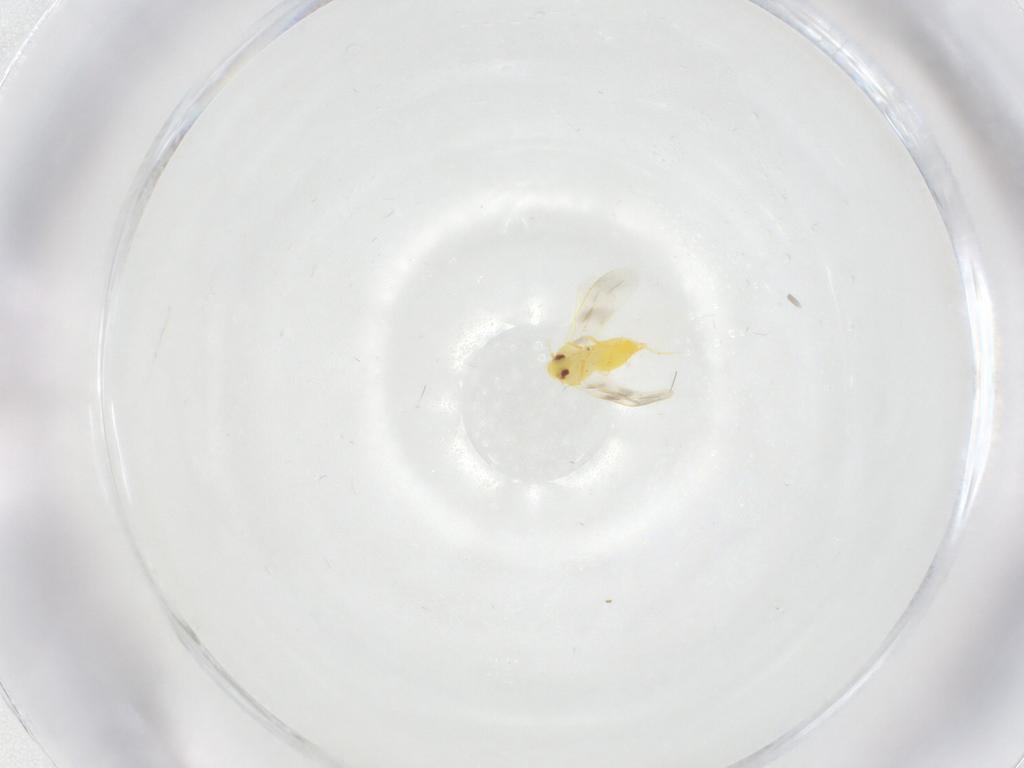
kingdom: Animalia
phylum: Arthropoda
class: Insecta
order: Hemiptera
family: Aleyrodidae
